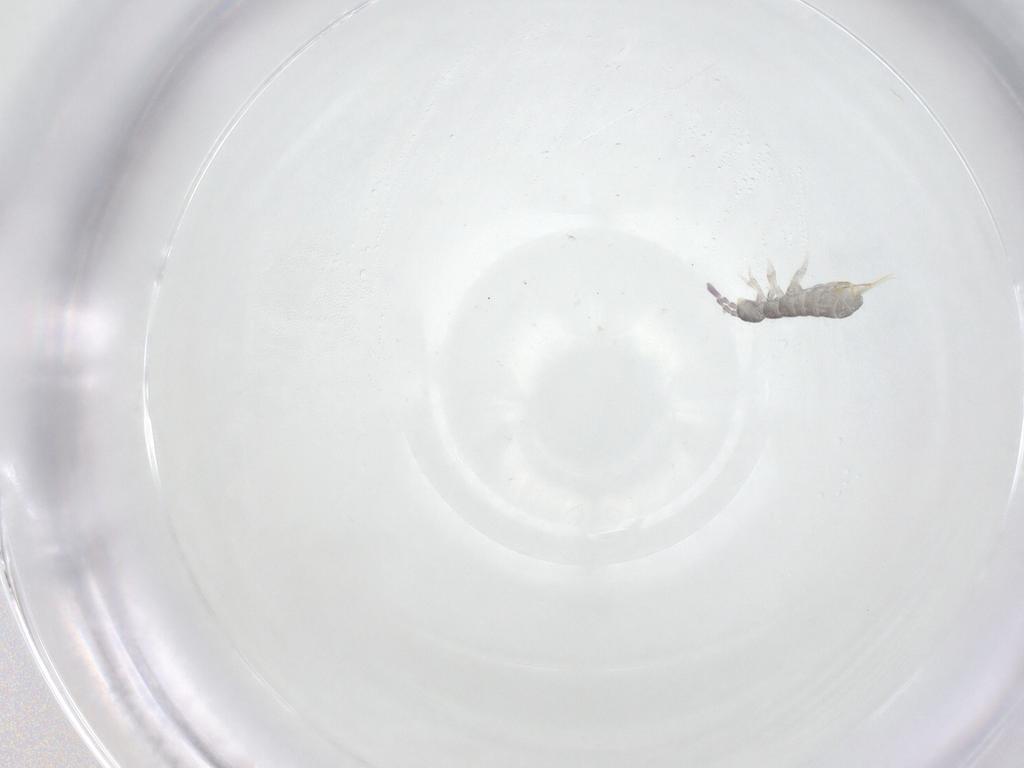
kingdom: Animalia
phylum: Arthropoda
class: Collembola
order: Entomobryomorpha
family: Isotomidae
